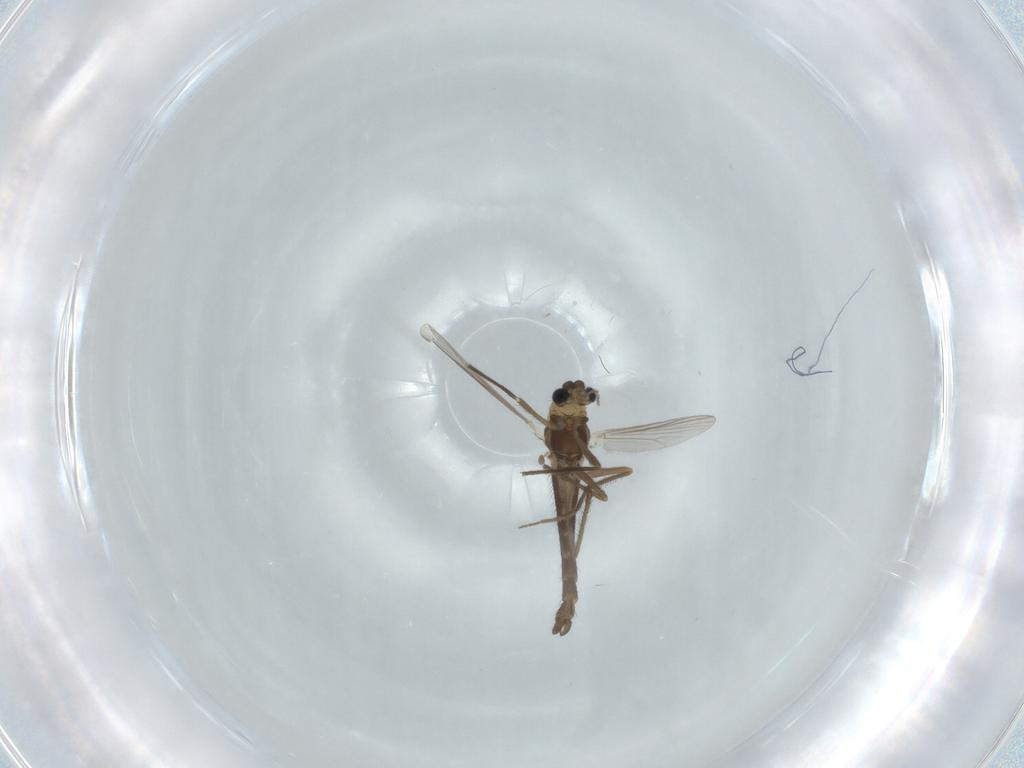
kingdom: Animalia
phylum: Arthropoda
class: Insecta
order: Diptera
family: Chironomidae
